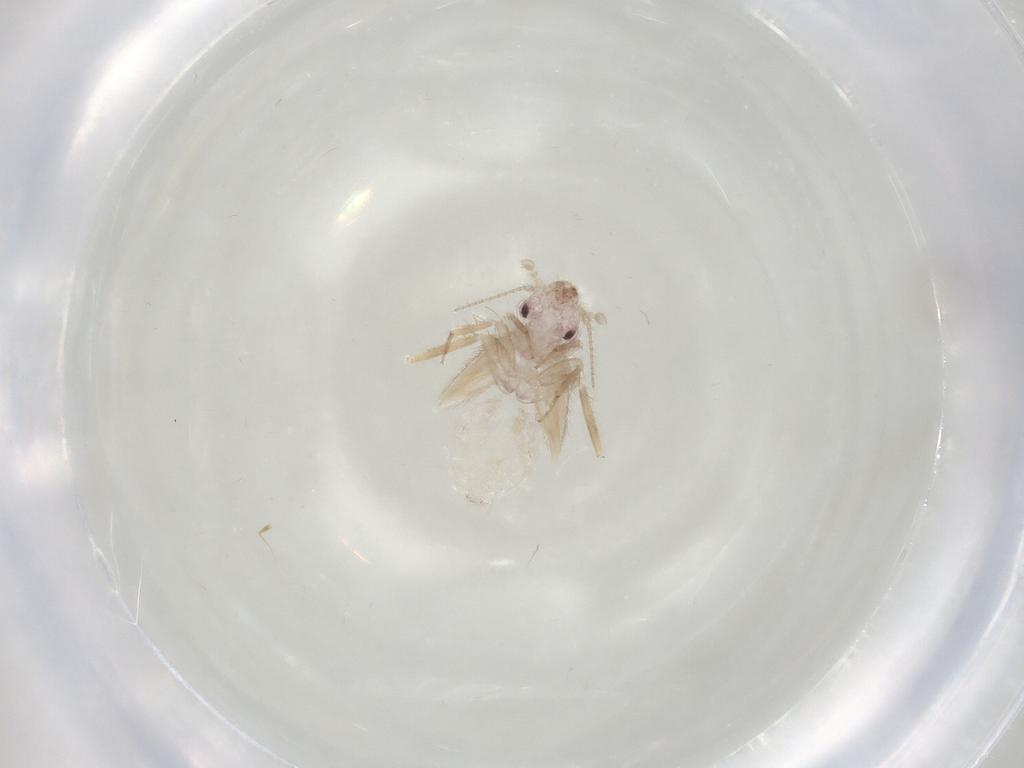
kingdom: Animalia
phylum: Arthropoda
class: Insecta
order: Psocodea
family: Lepidopsocidae
